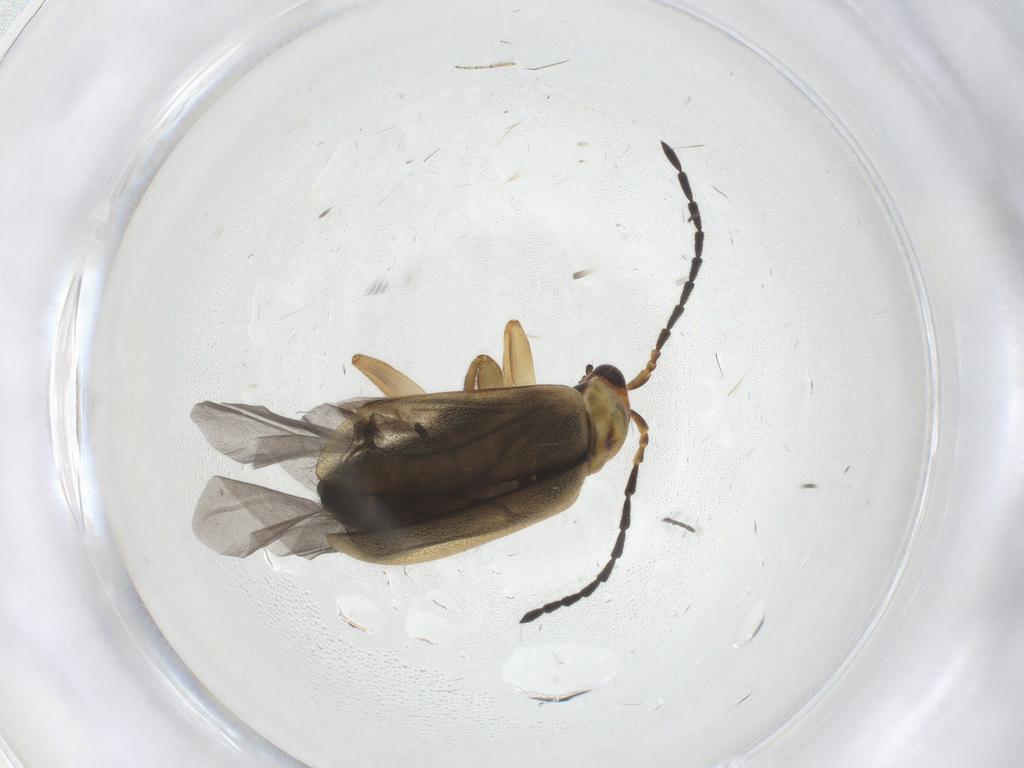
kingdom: Animalia
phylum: Arthropoda
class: Insecta
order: Coleoptera
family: Chrysomelidae
